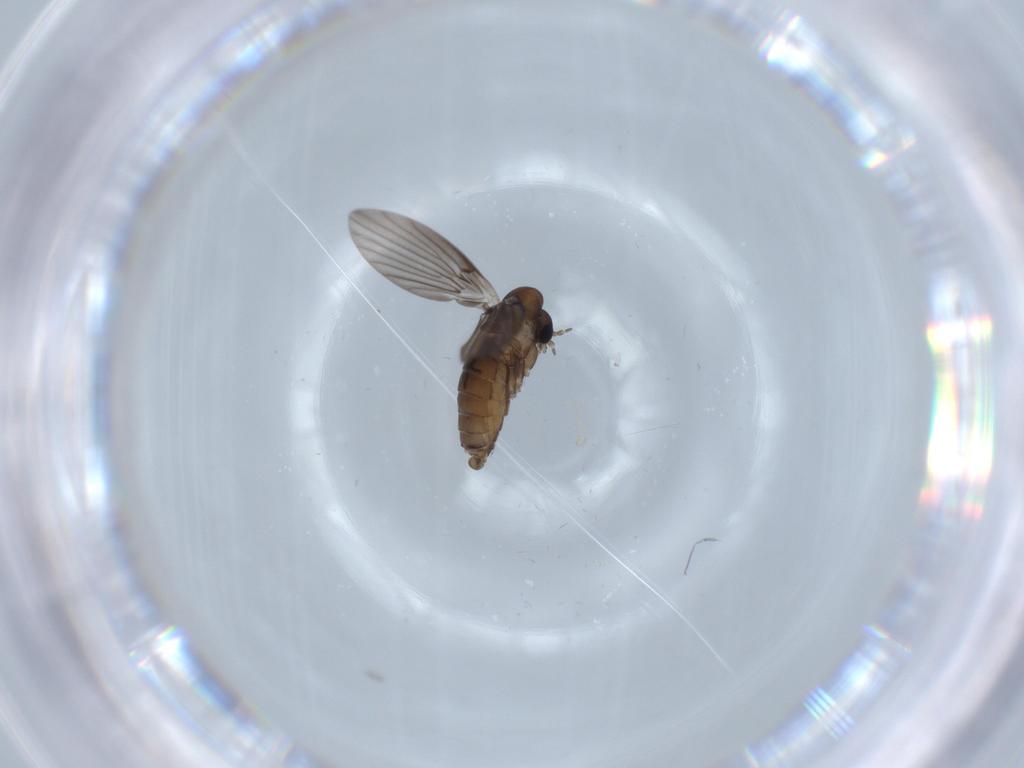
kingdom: Animalia
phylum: Arthropoda
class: Insecta
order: Diptera
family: Psychodidae
